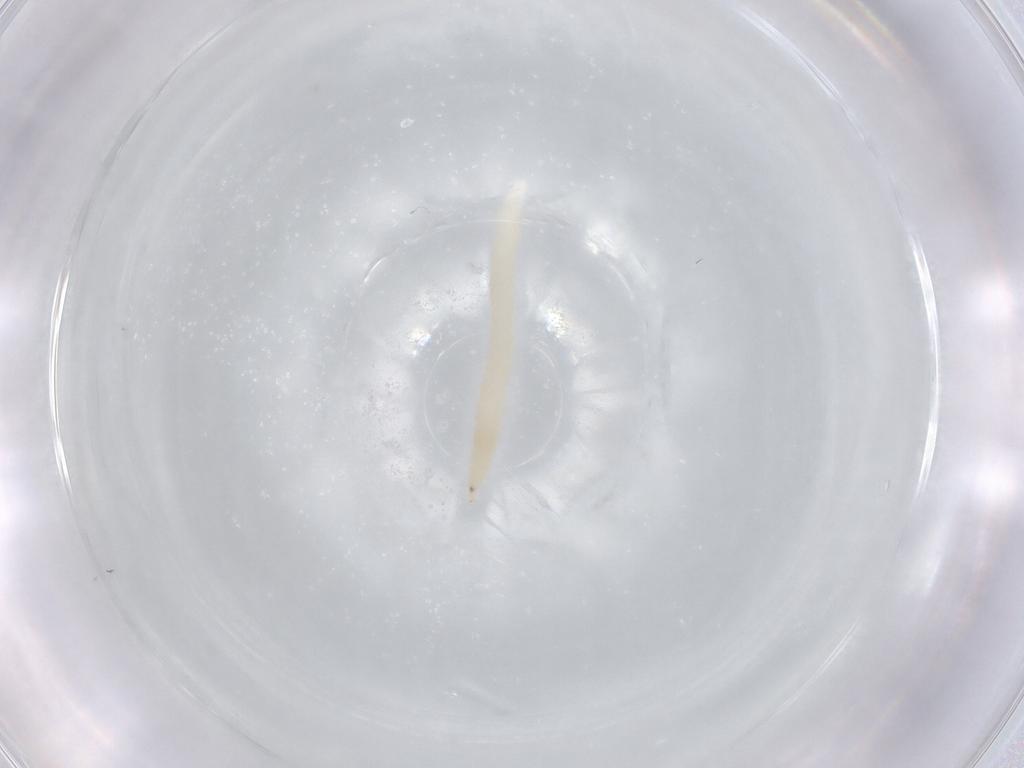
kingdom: Animalia
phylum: Arthropoda
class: Insecta
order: Diptera
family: Cecidomyiidae
